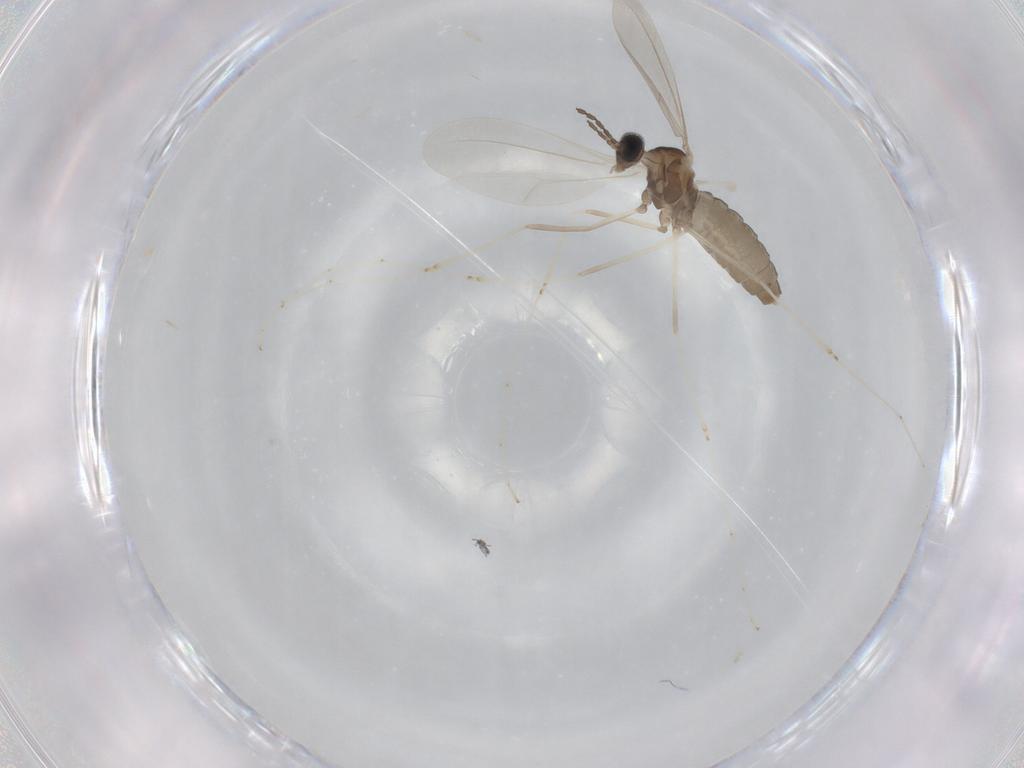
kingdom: Animalia
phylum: Arthropoda
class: Insecta
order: Diptera
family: Cecidomyiidae
